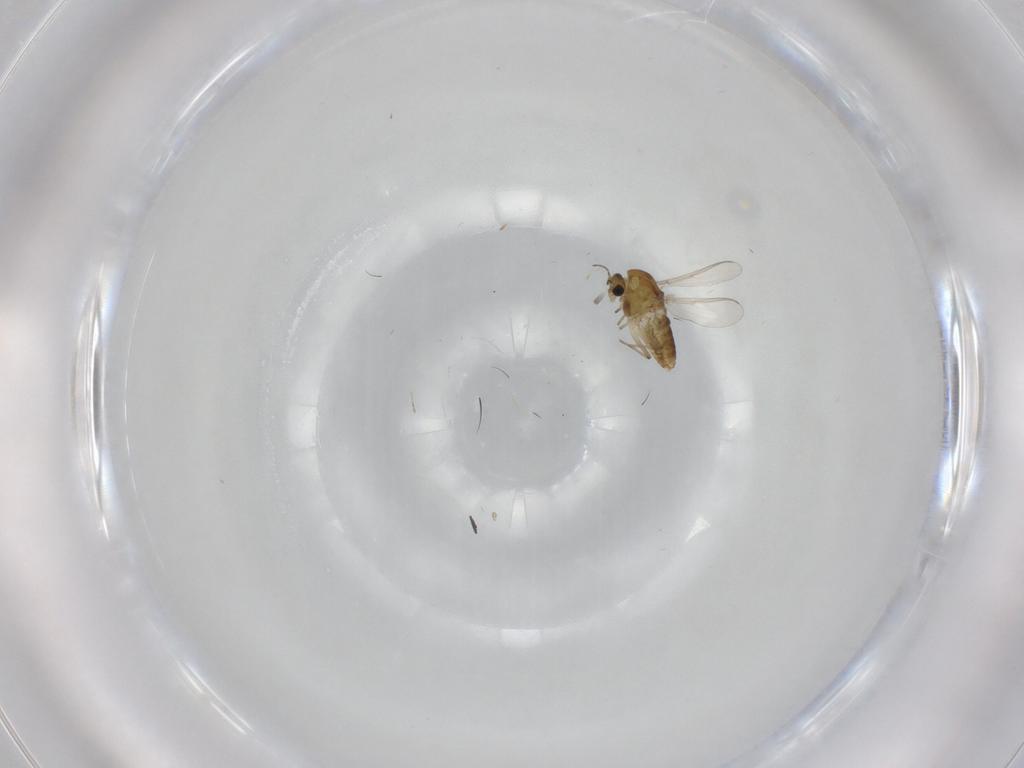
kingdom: Animalia
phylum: Arthropoda
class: Insecta
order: Diptera
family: Chironomidae
